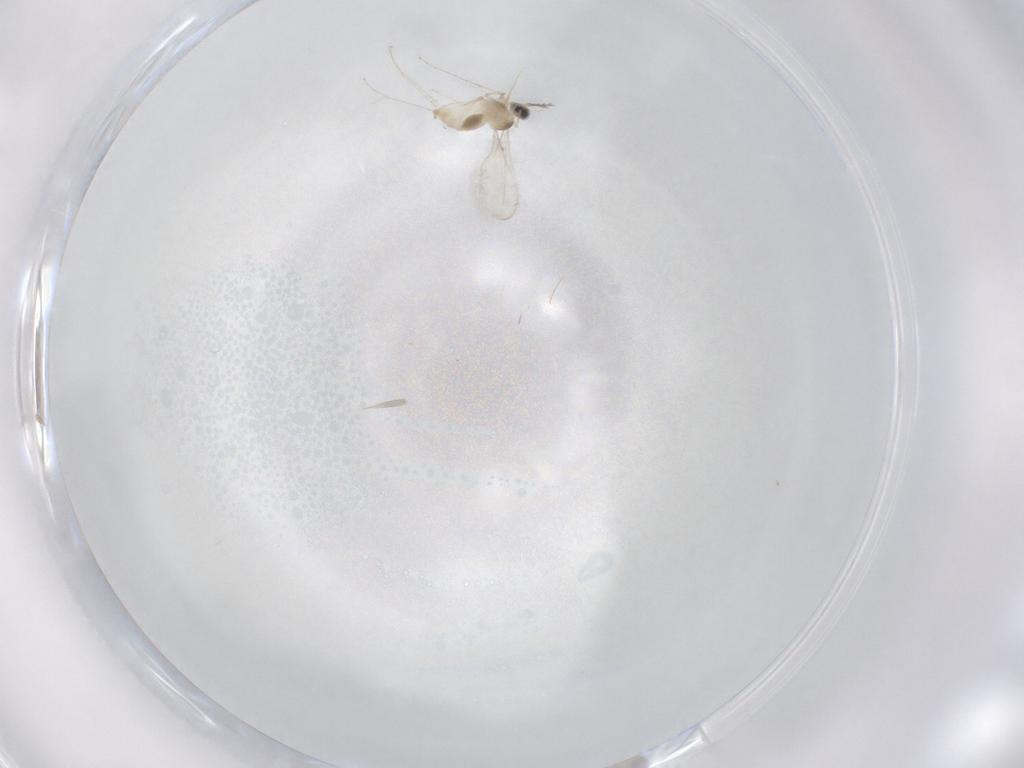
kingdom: Animalia
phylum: Arthropoda
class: Insecta
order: Diptera
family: Cecidomyiidae
